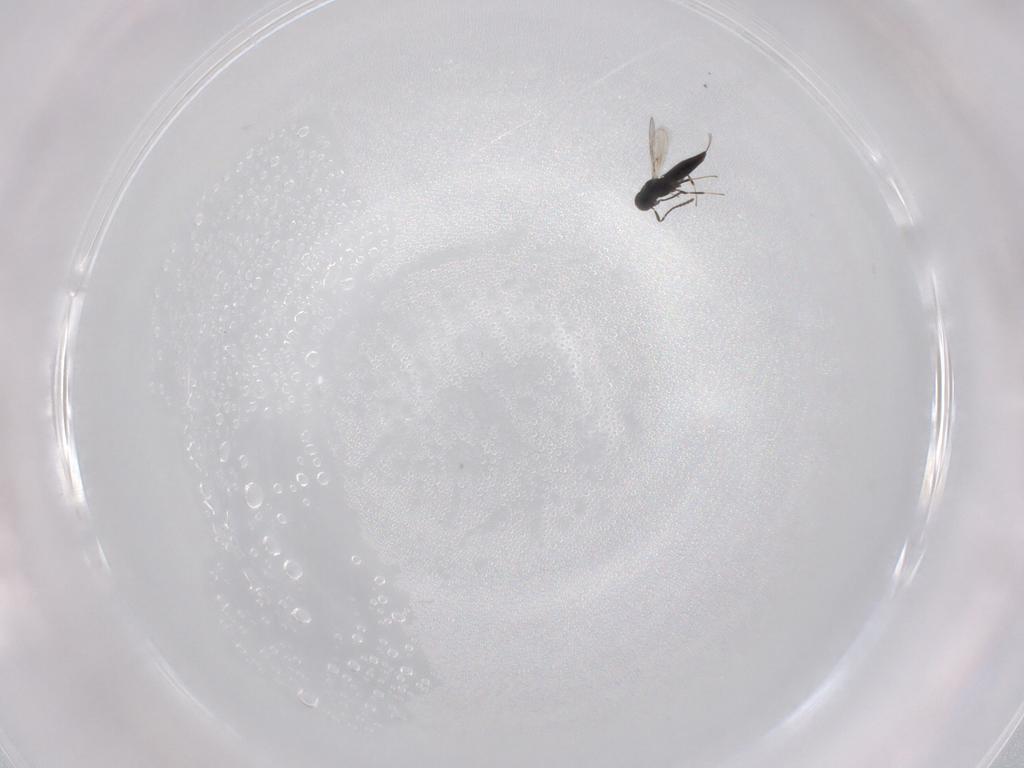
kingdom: Animalia
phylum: Arthropoda
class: Insecta
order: Hymenoptera
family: Scelionidae
